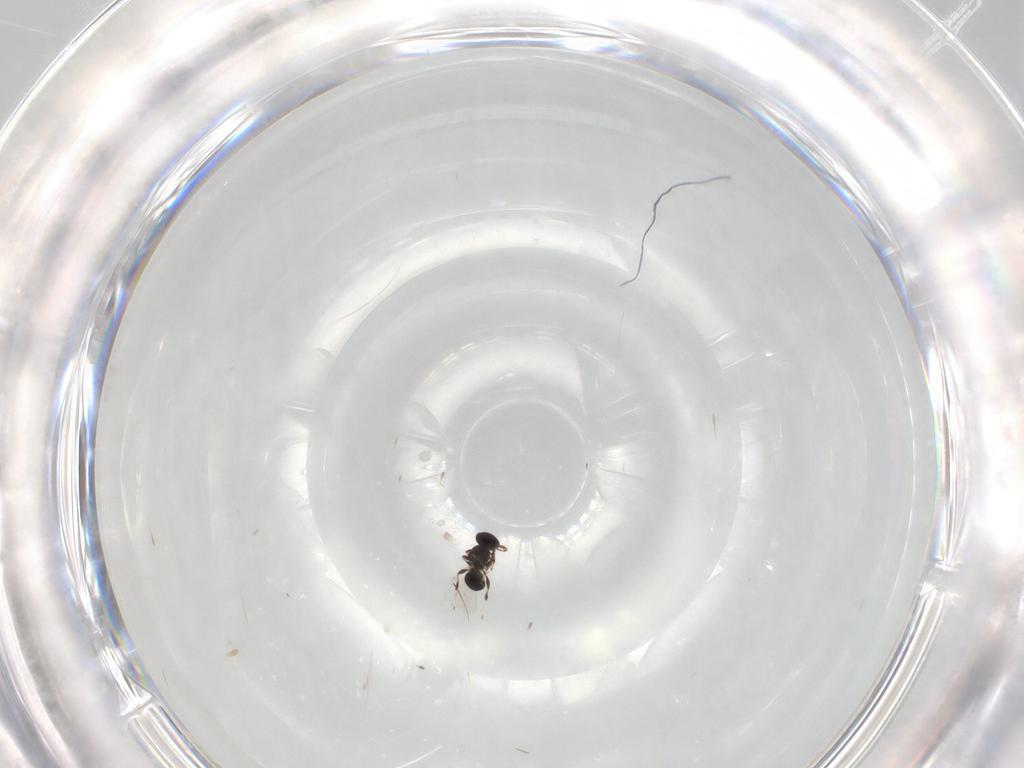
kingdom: Animalia
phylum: Arthropoda
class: Insecta
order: Hymenoptera
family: Platygastridae
